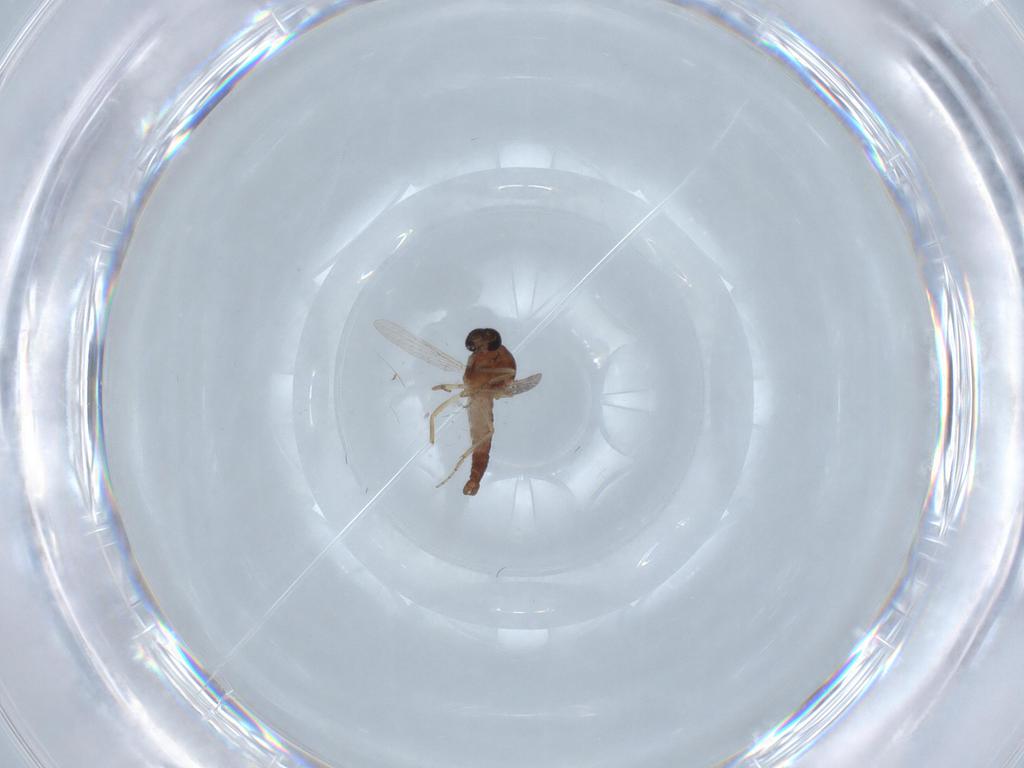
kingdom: Animalia
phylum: Arthropoda
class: Insecta
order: Diptera
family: Ceratopogonidae
